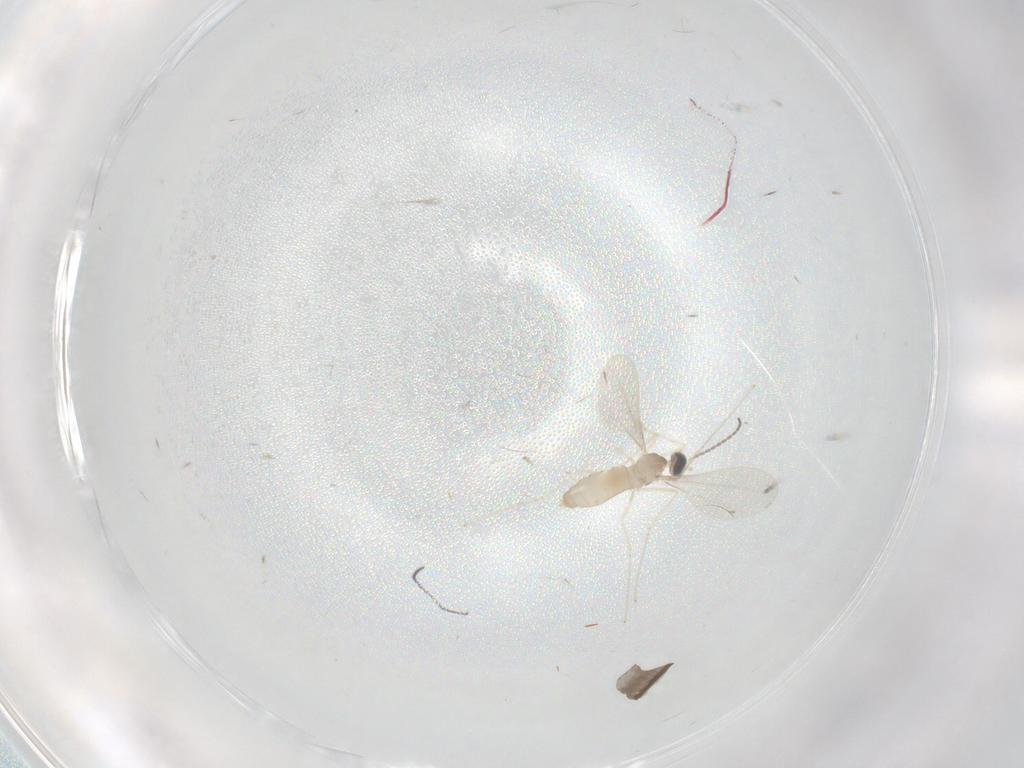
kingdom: Animalia
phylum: Arthropoda
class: Insecta
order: Diptera
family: Cecidomyiidae
